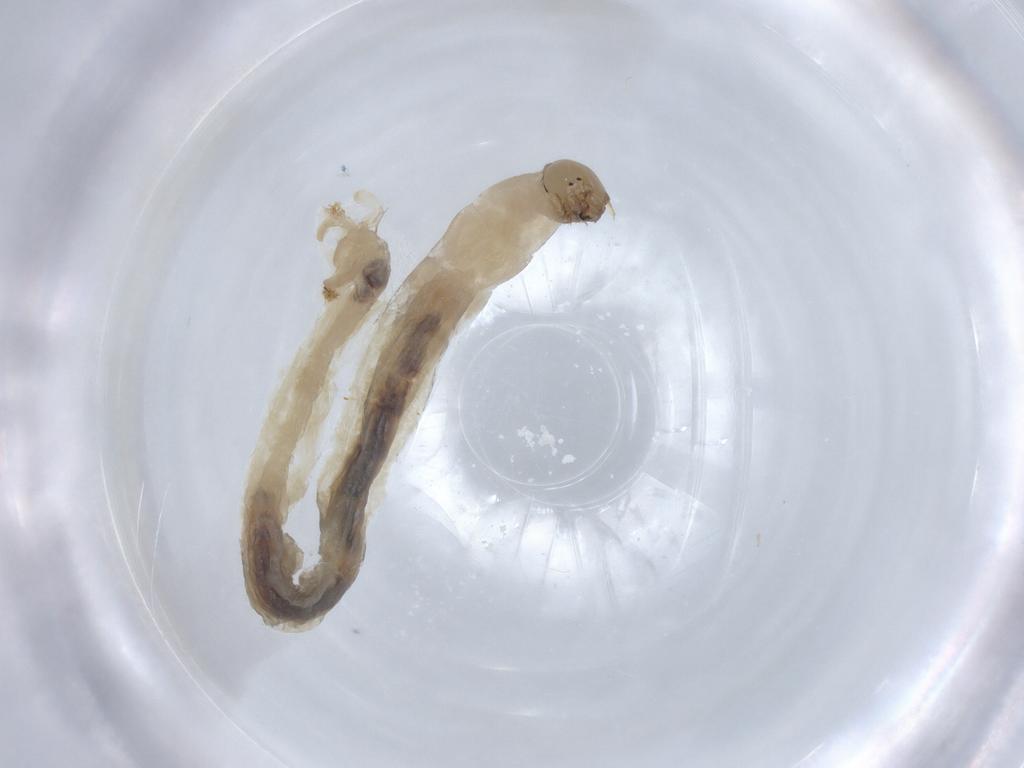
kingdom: Animalia
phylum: Arthropoda
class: Insecta
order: Diptera
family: Chironomidae
